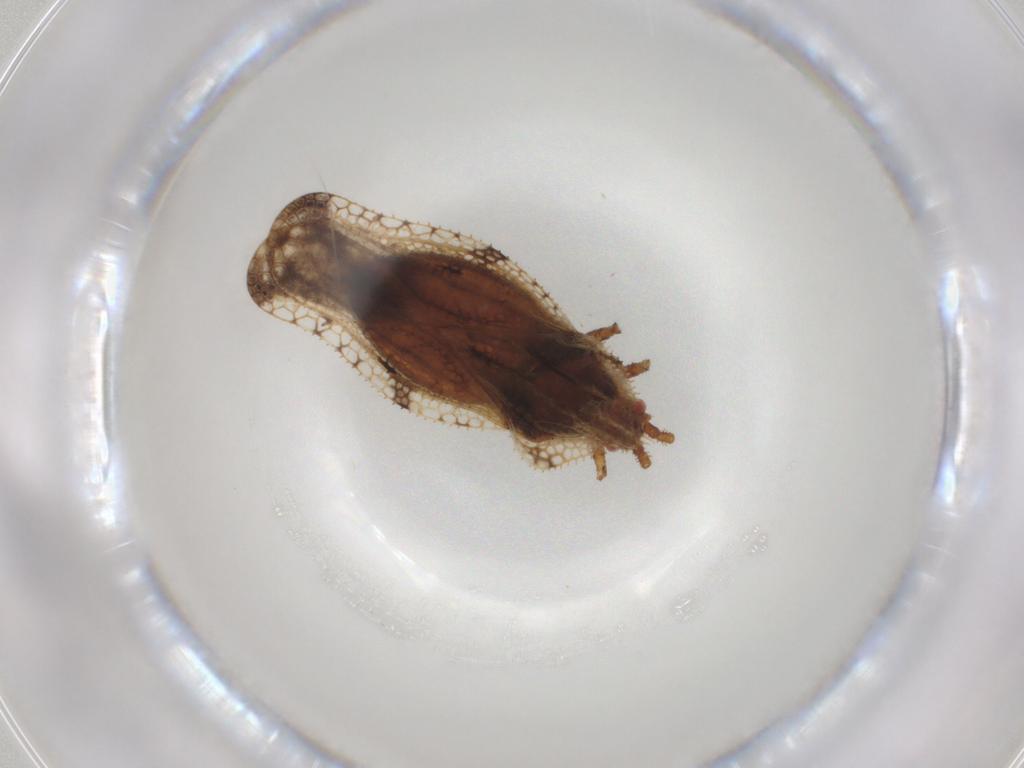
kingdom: Animalia
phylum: Arthropoda
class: Insecta
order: Hemiptera
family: Tingidae
